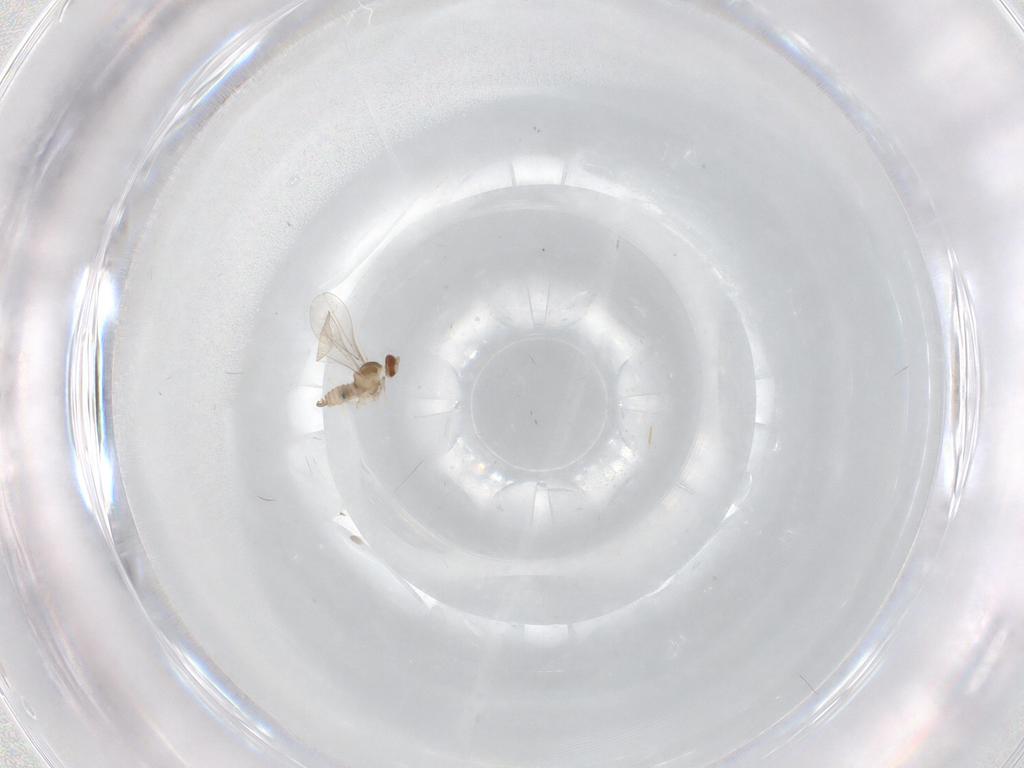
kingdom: Animalia
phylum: Arthropoda
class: Insecta
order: Diptera
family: Cecidomyiidae
